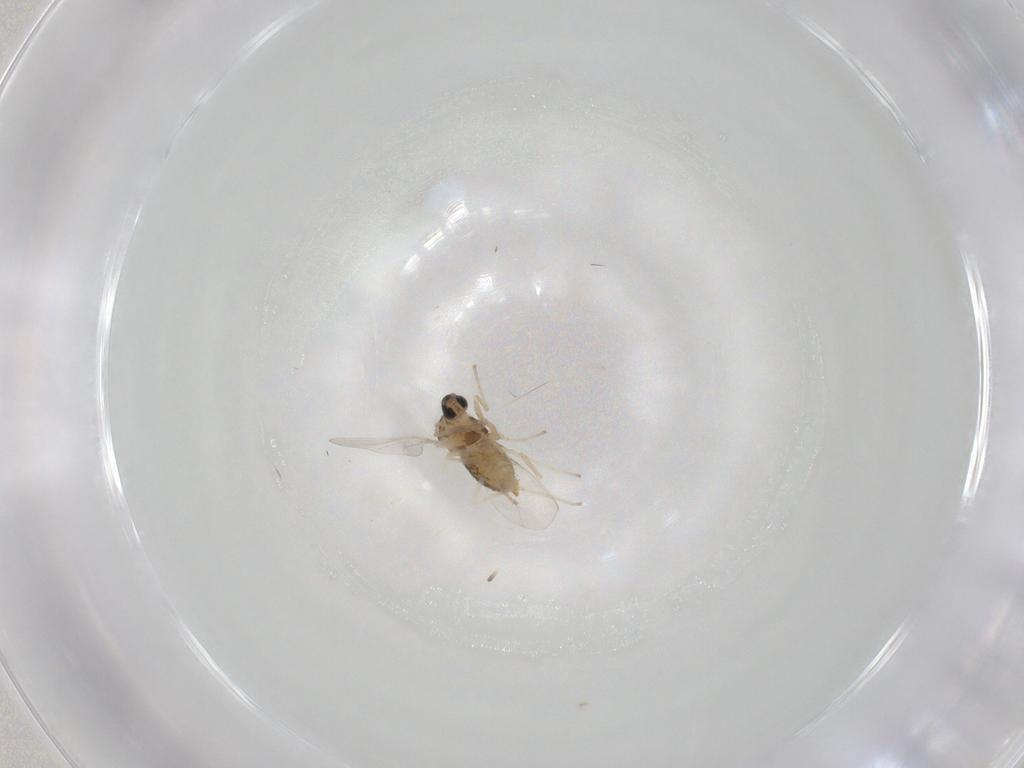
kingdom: Animalia
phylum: Arthropoda
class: Insecta
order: Diptera
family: Cecidomyiidae
